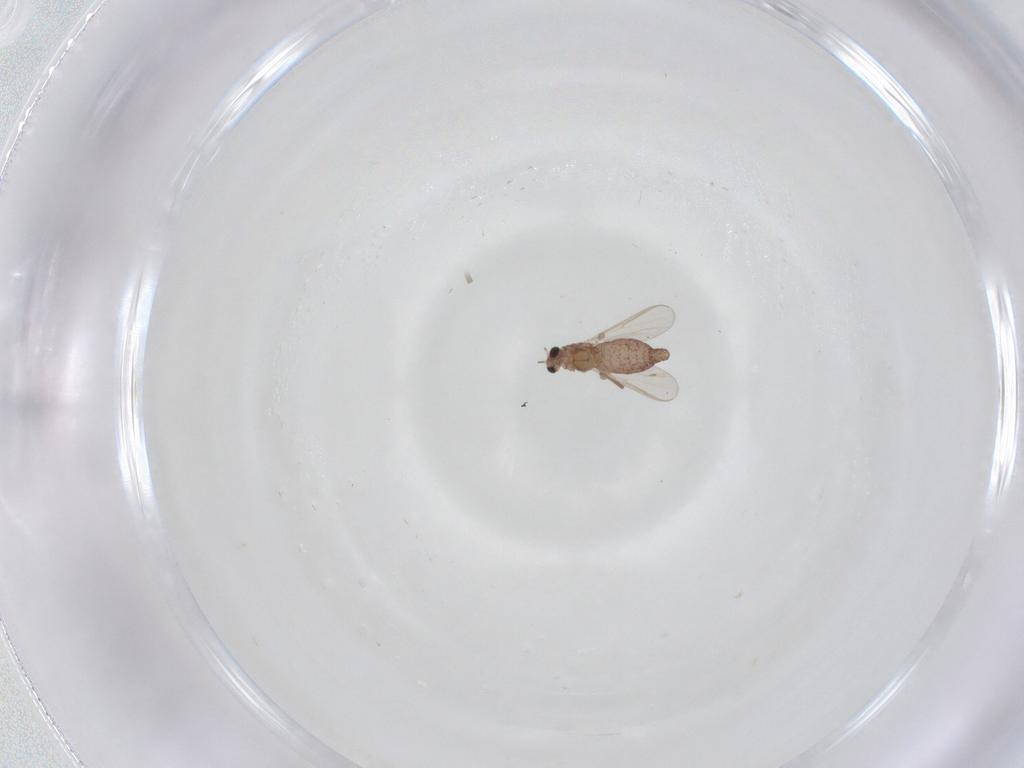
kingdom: Animalia
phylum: Arthropoda
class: Insecta
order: Diptera
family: Chironomidae
